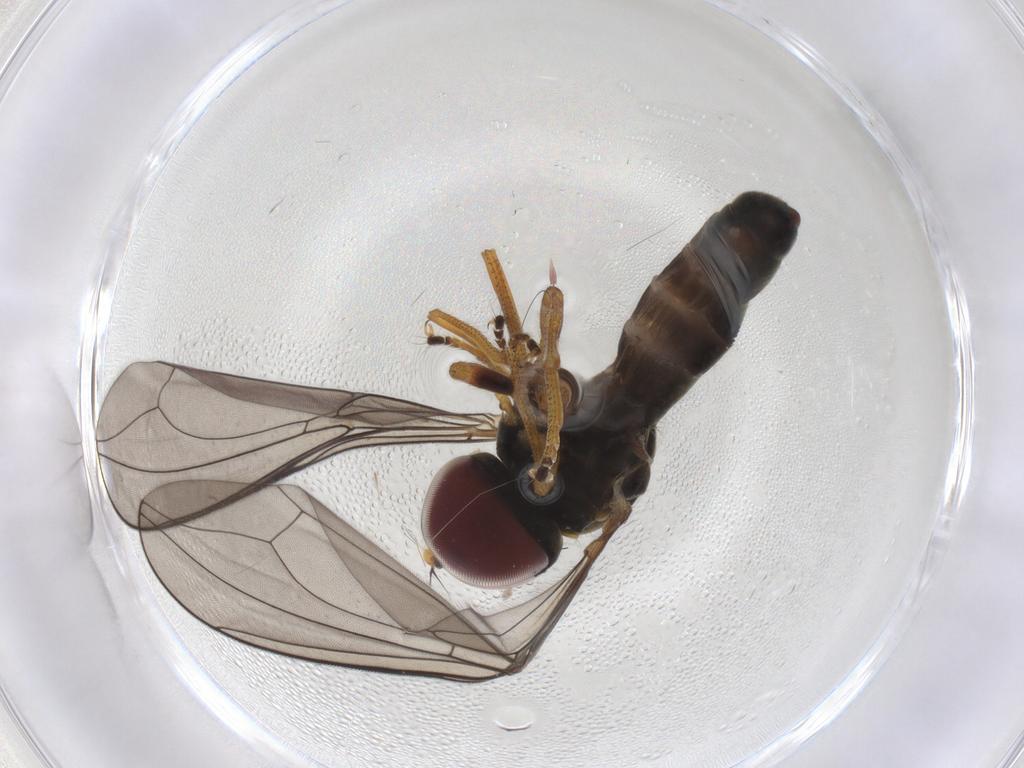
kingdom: Animalia
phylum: Arthropoda
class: Insecta
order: Diptera
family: Pipunculidae
